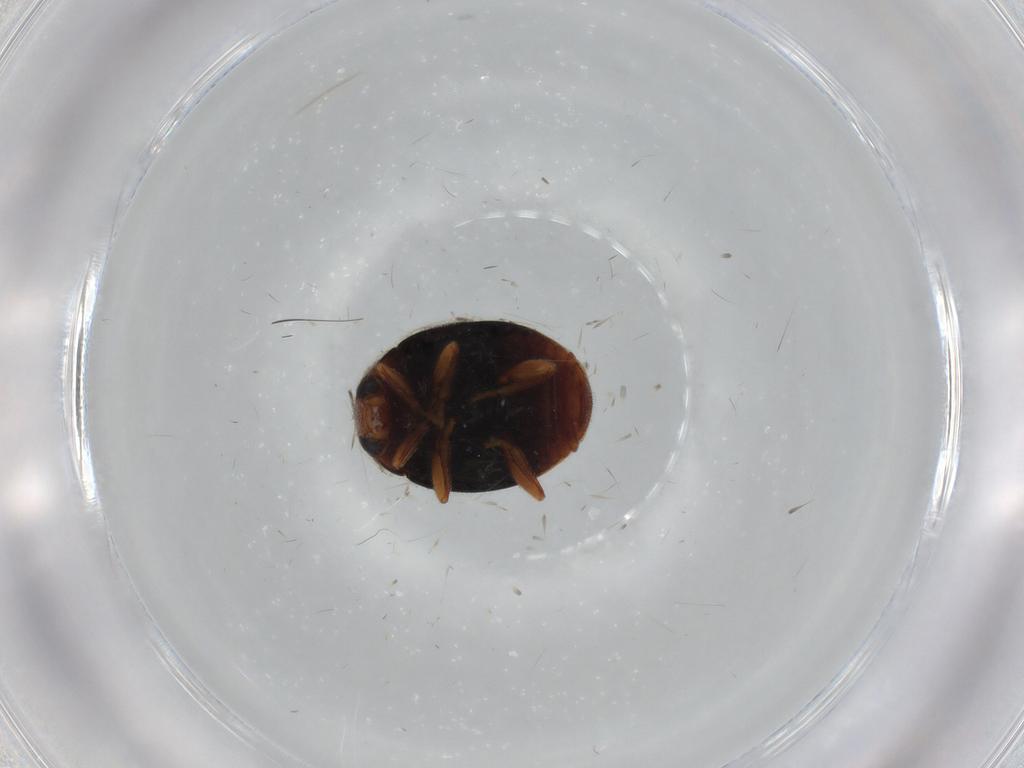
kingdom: Animalia
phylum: Arthropoda
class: Insecta
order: Coleoptera
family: Coccinellidae
